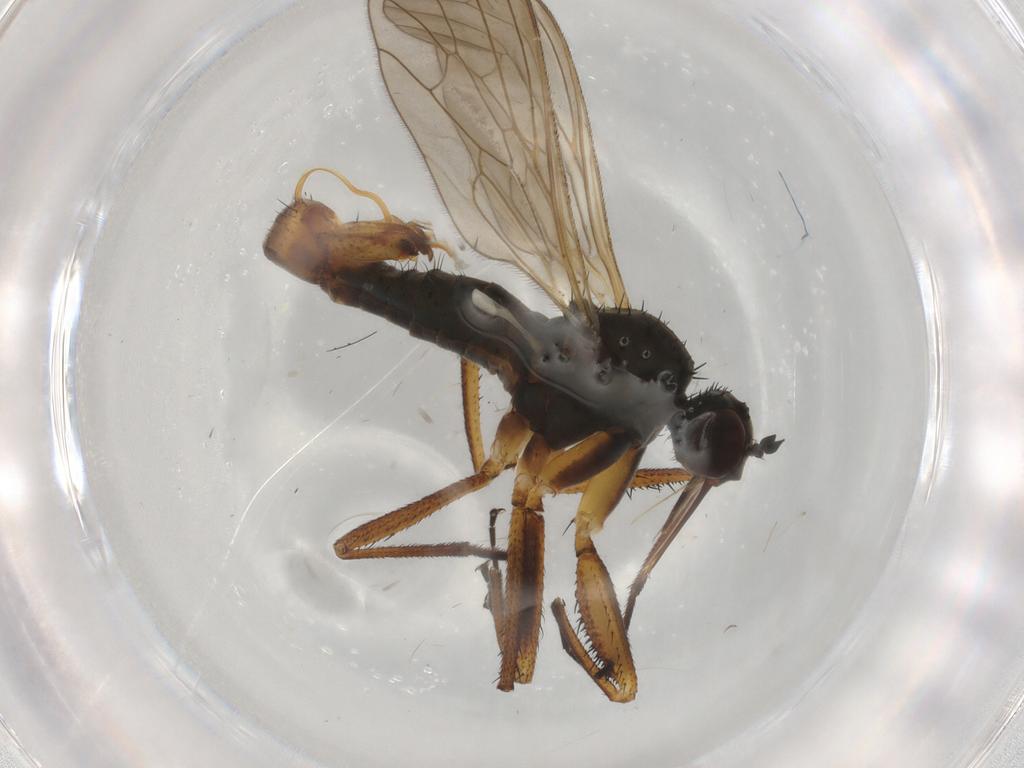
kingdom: Animalia
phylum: Arthropoda
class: Insecta
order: Diptera
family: Empididae
